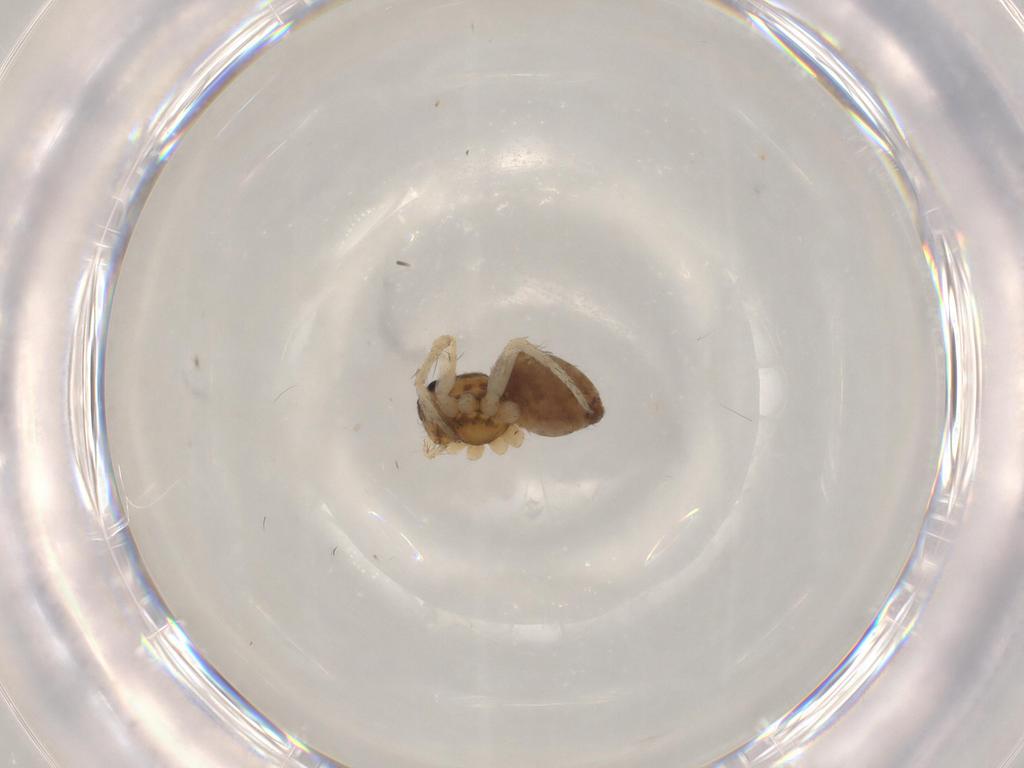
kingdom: Animalia
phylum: Arthropoda
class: Arachnida
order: Araneae
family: Pisauridae
